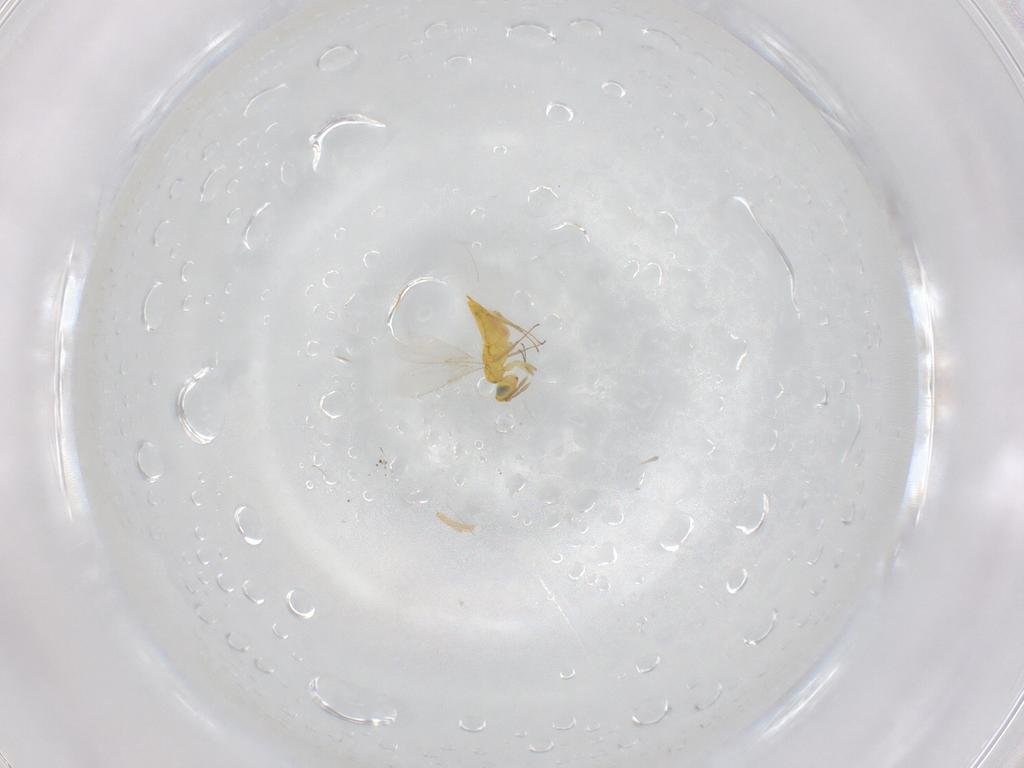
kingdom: Animalia
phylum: Arthropoda
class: Insecta
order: Hymenoptera
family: Aphelinidae
